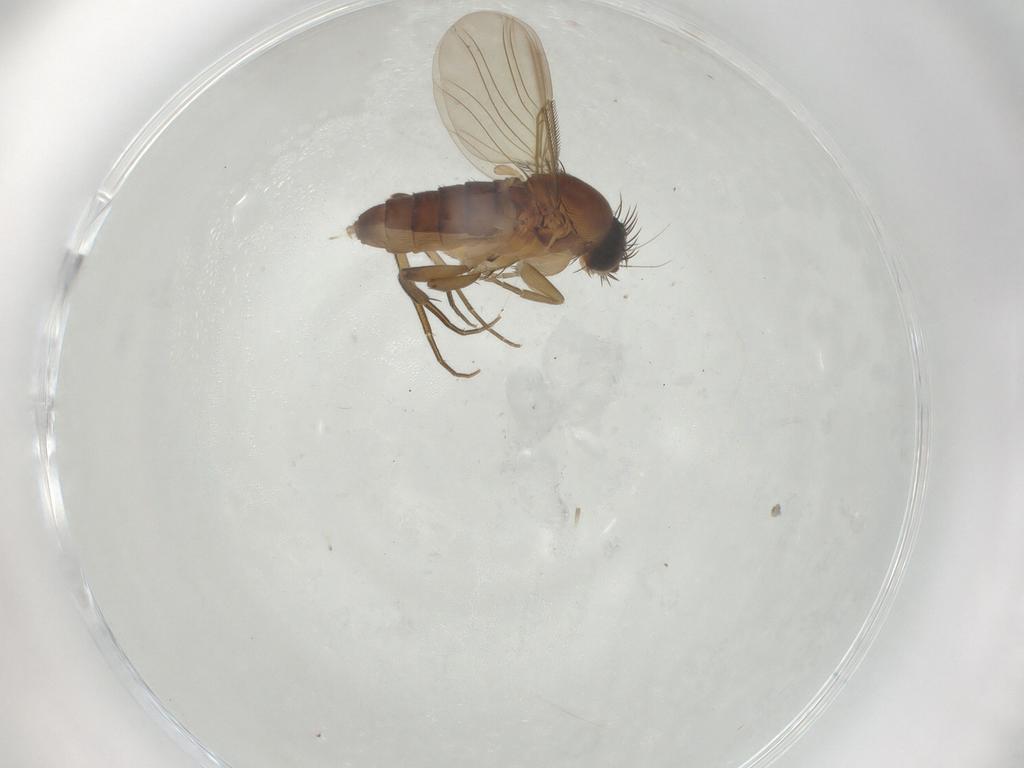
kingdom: Animalia
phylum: Arthropoda
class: Insecta
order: Diptera
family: Phoridae
